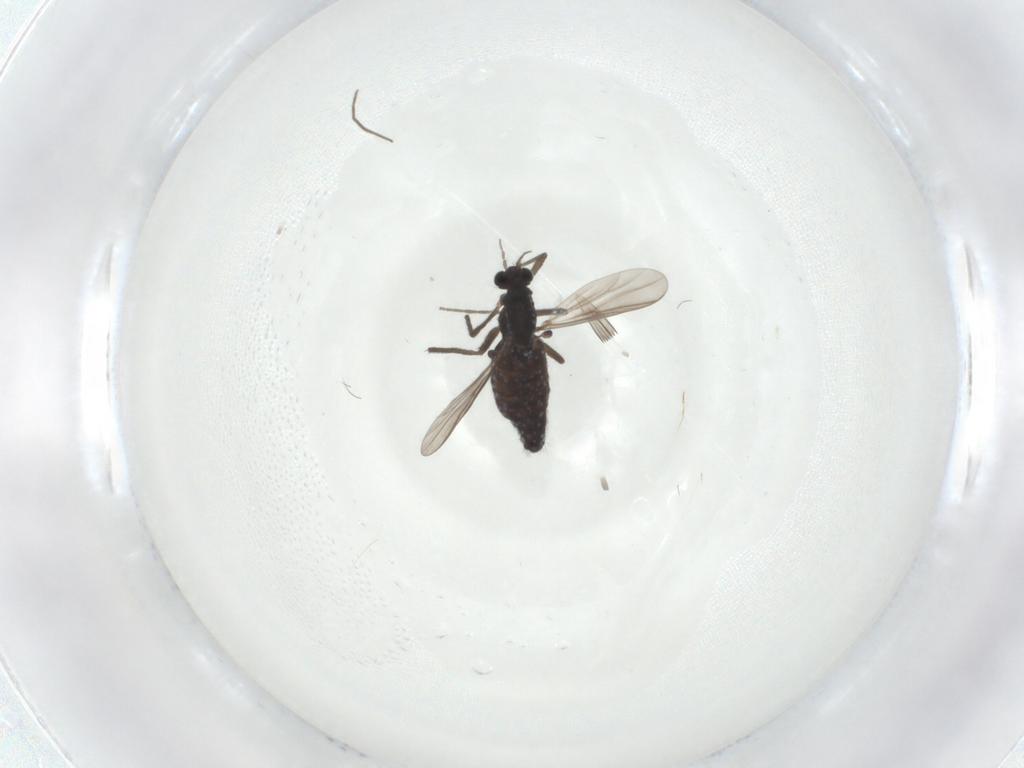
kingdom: Animalia
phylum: Arthropoda
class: Insecta
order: Diptera
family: Chironomidae
